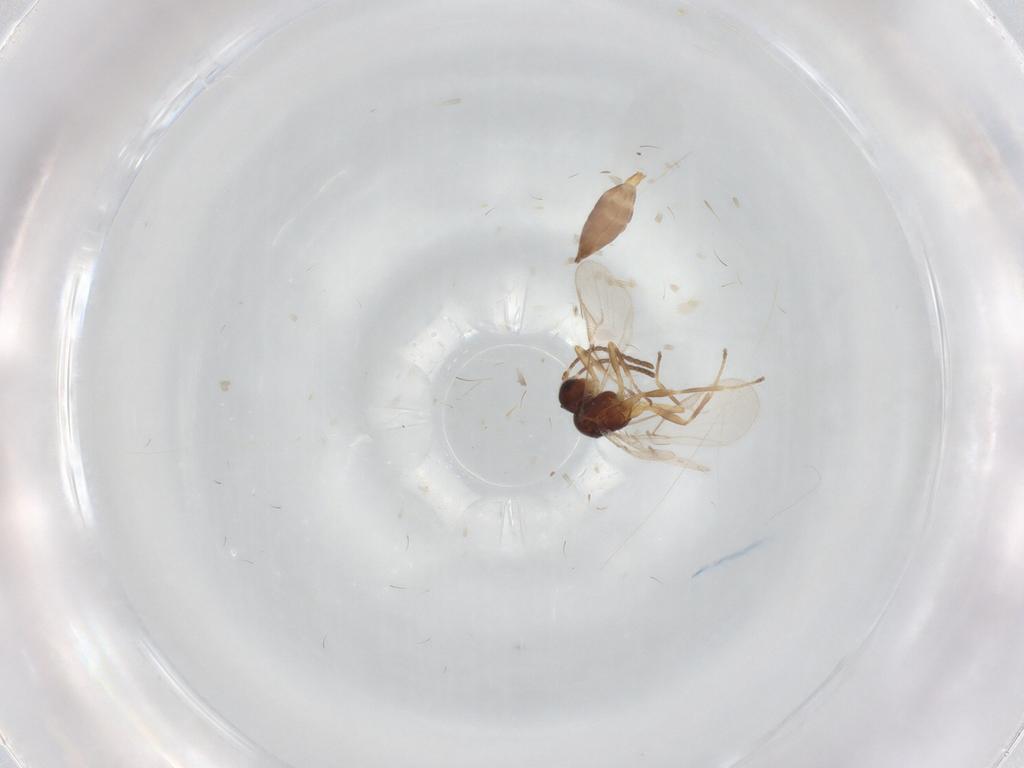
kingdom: Animalia
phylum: Arthropoda
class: Insecta
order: Hymenoptera
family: Braconidae
